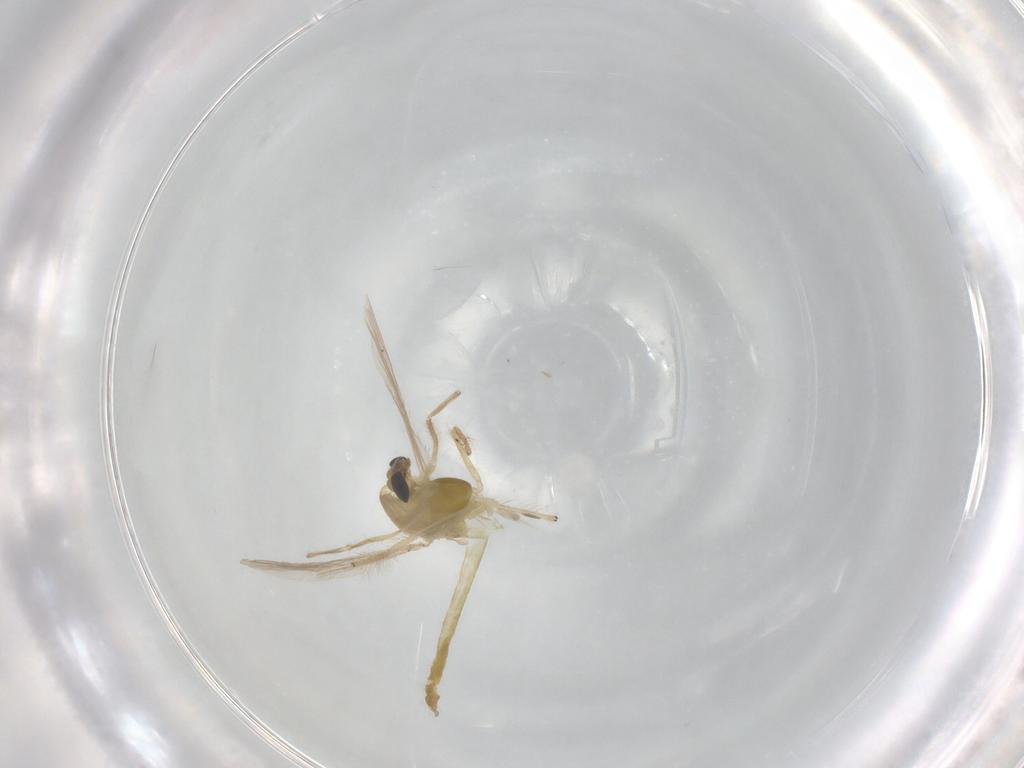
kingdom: Animalia
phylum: Arthropoda
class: Insecta
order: Diptera
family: Chironomidae
